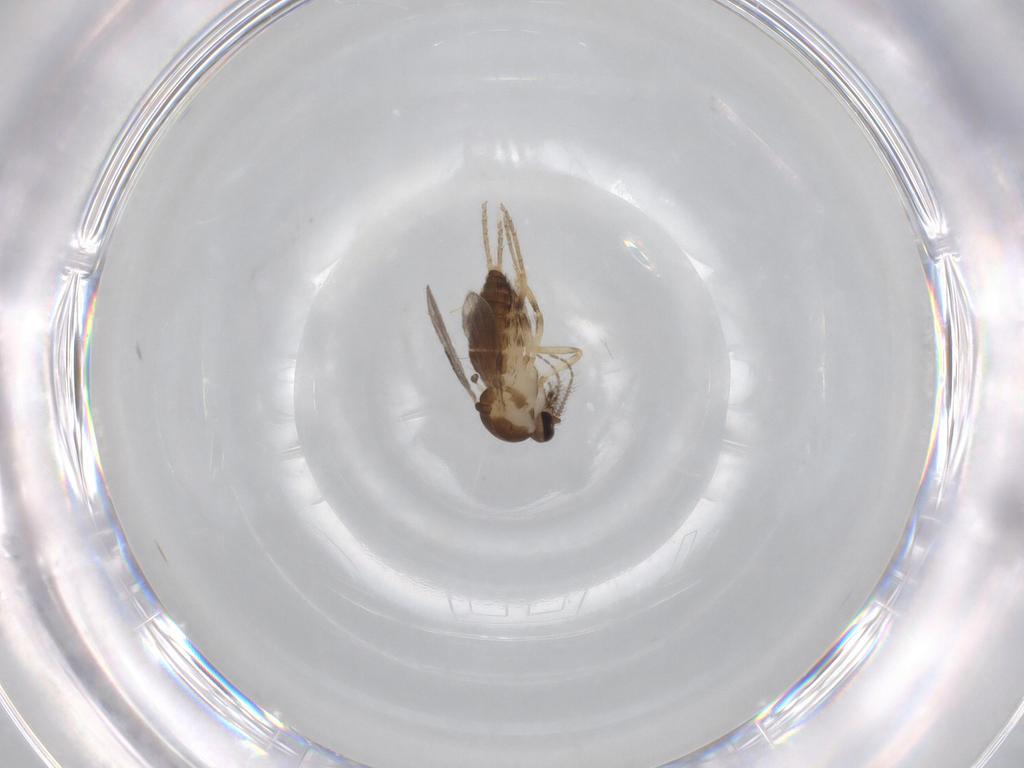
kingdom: Animalia
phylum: Arthropoda
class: Insecta
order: Diptera
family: Ceratopogonidae
